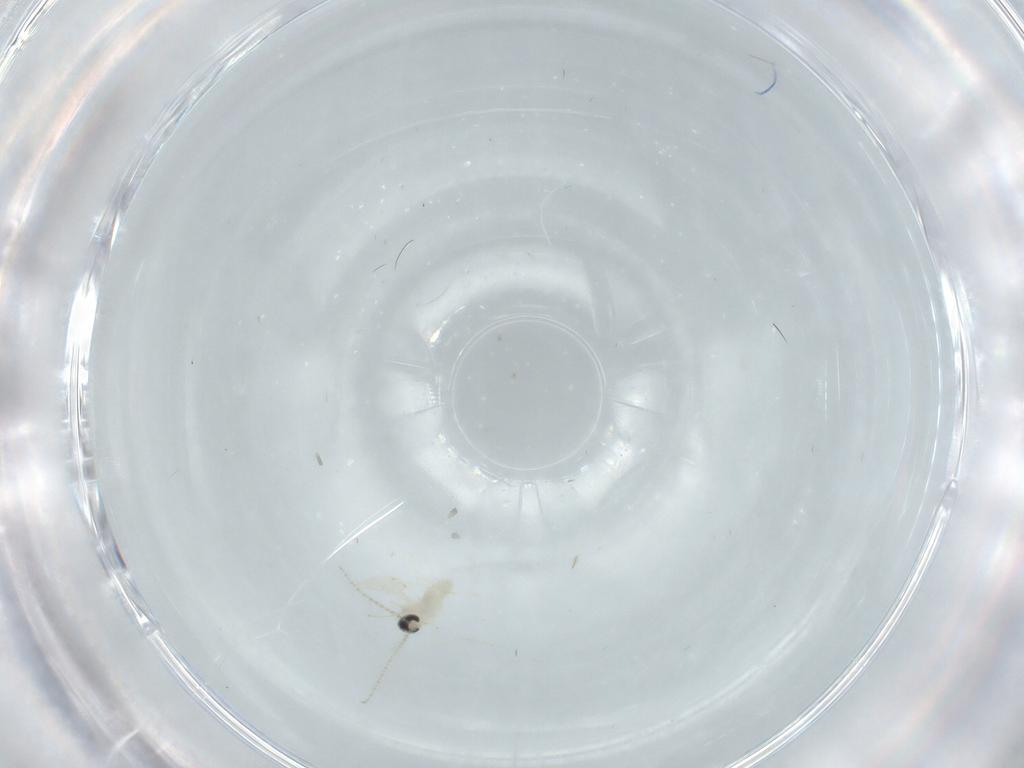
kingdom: Animalia
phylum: Arthropoda
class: Insecta
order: Diptera
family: Cecidomyiidae
